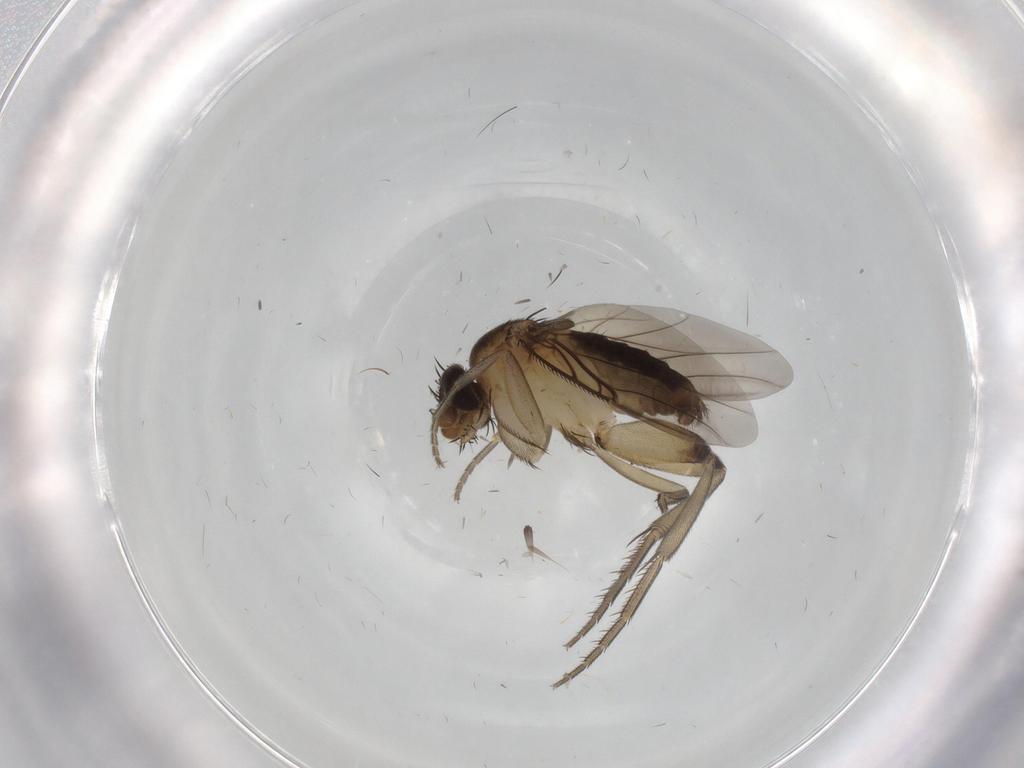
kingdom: Animalia
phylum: Arthropoda
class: Insecta
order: Diptera
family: Phoridae
